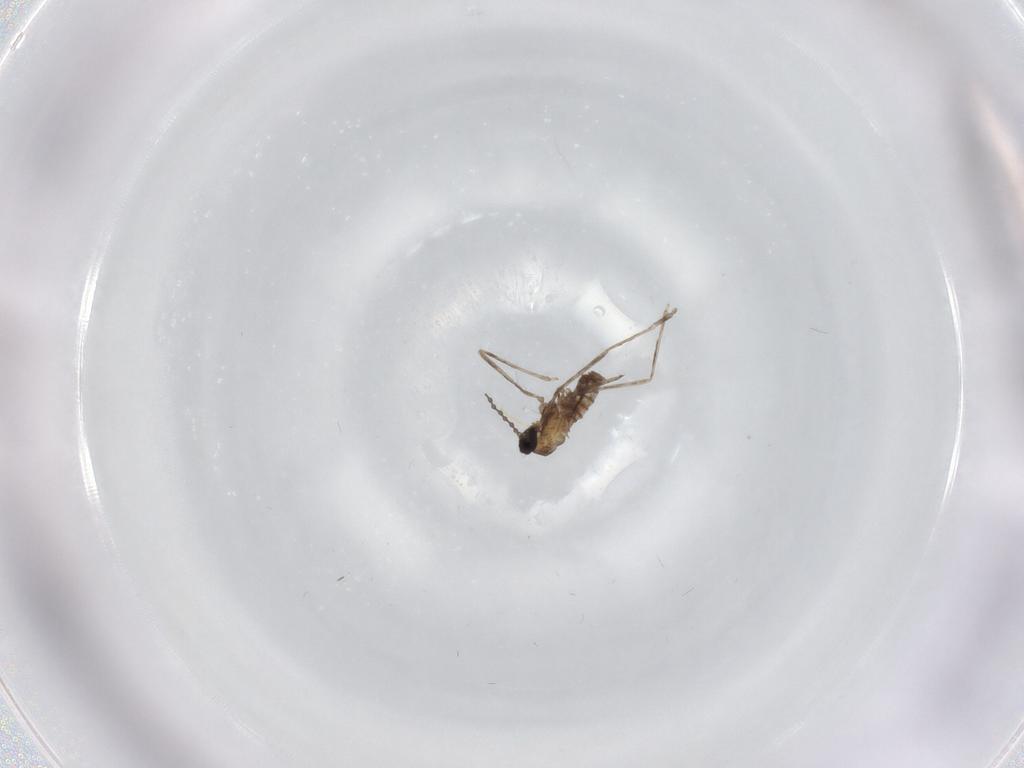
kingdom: Animalia
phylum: Arthropoda
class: Insecta
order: Diptera
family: Cecidomyiidae
